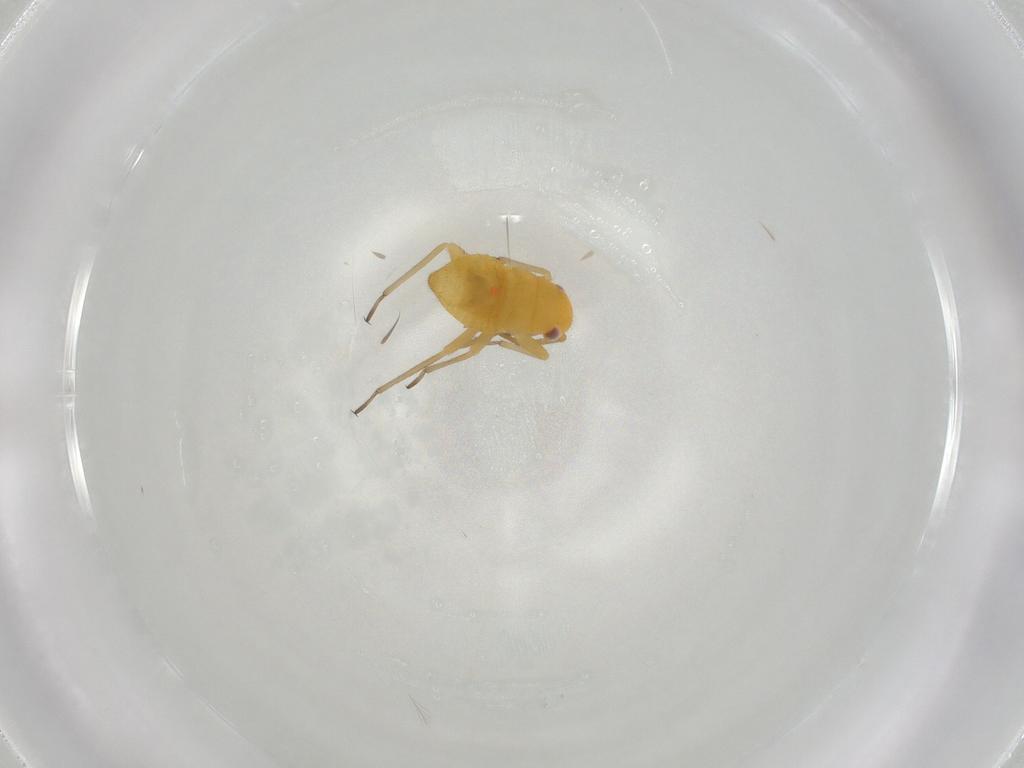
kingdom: Animalia
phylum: Arthropoda
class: Insecta
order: Hemiptera
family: Miridae
